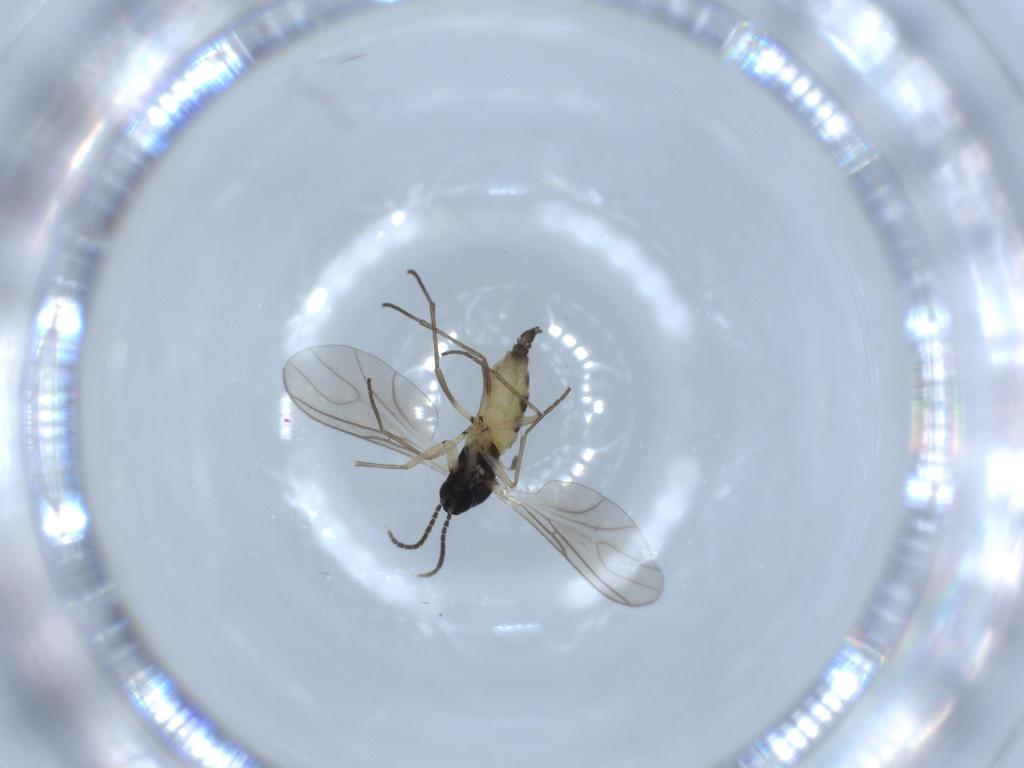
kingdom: Animalia
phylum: Arthropoda
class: Insecta
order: Diptera
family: Sciaridae
